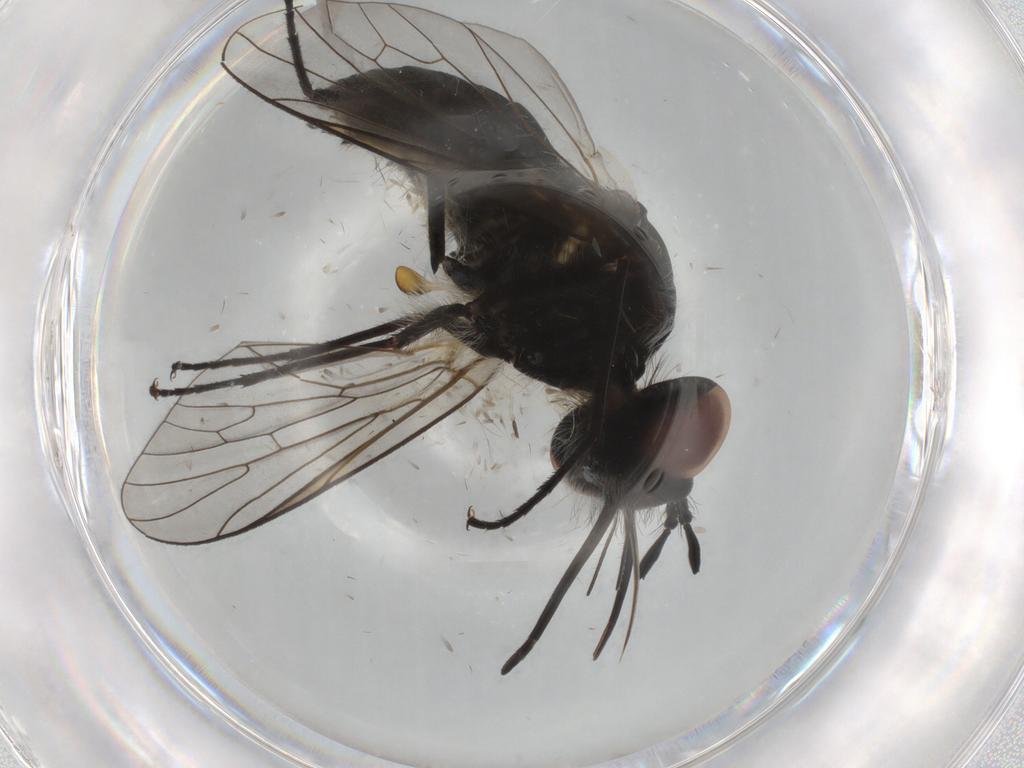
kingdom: Animalia
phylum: Arthropoda
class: Insecta
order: Diptera
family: Bombyliidae
